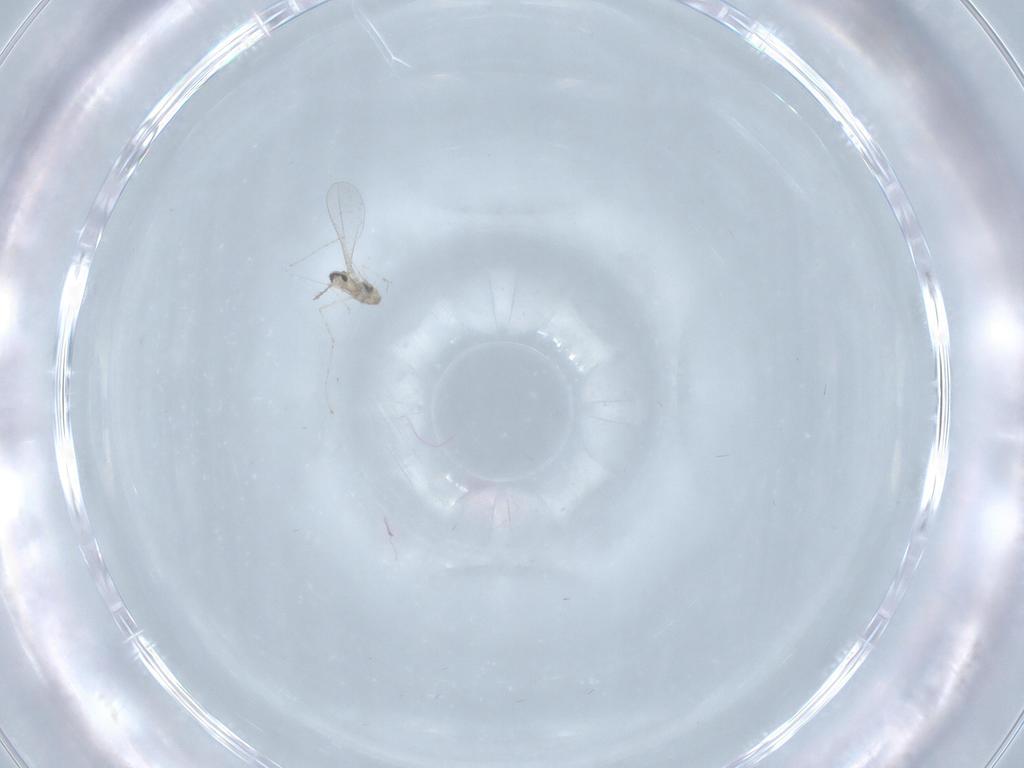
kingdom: Animalia
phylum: Arthropoda
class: Insecta
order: Diptera
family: Cecidomyiidae
